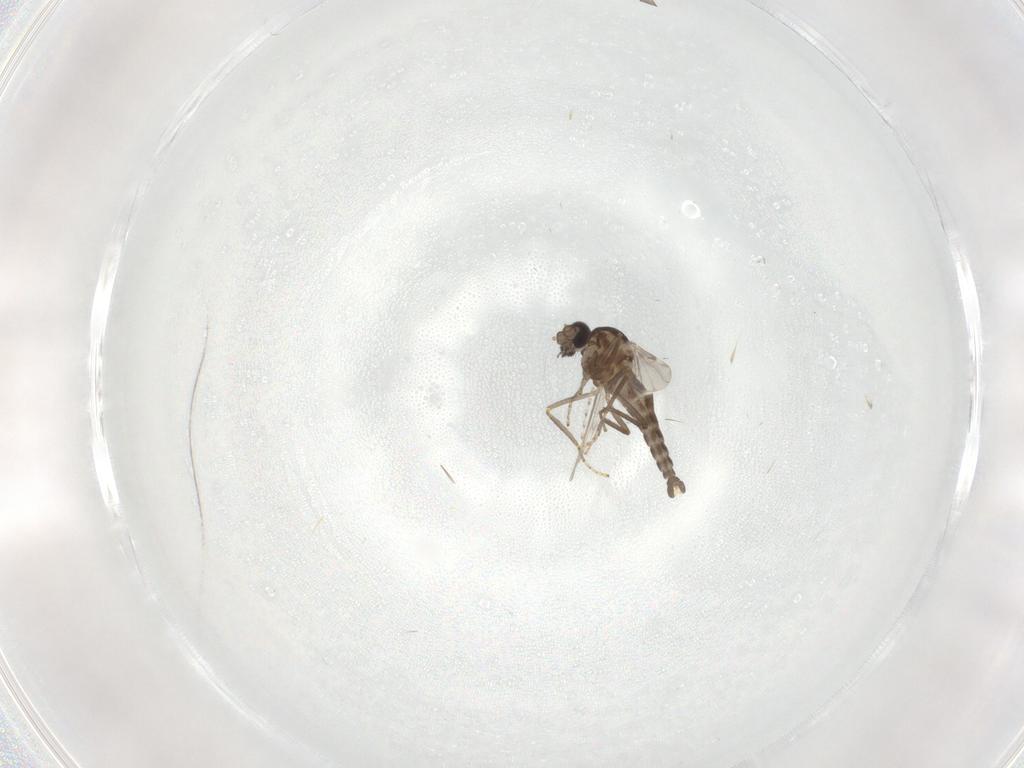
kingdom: Animalia
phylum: Arthropoda
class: Insecta
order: Diptera
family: Ceratopogonidae
